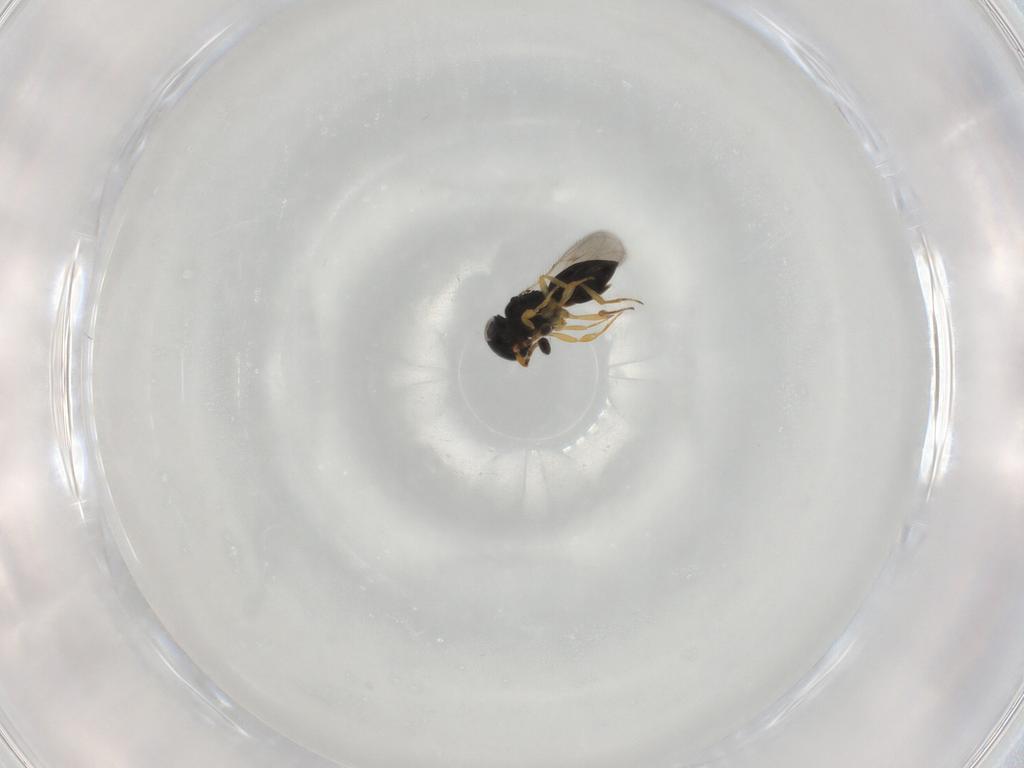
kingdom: Animalia
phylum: Arthropoda
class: Insecta
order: Hymenoptera
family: Scelionidae
